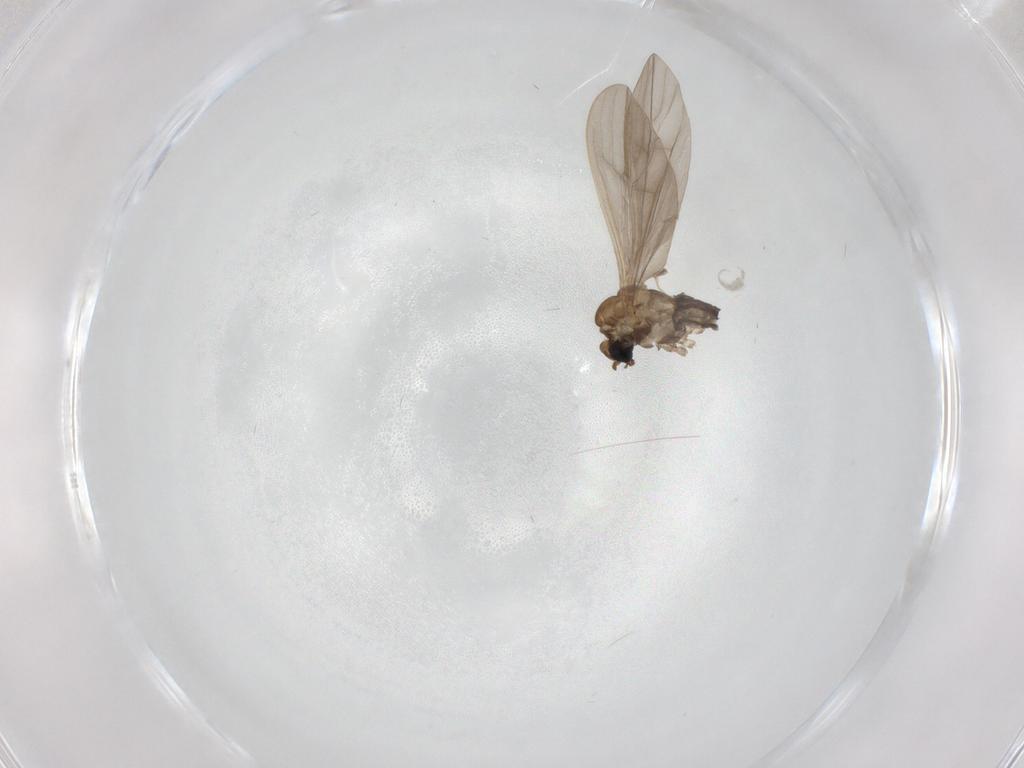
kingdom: Animalia
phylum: Arthropoda
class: Insecta
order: Diptera
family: Limoniidae
